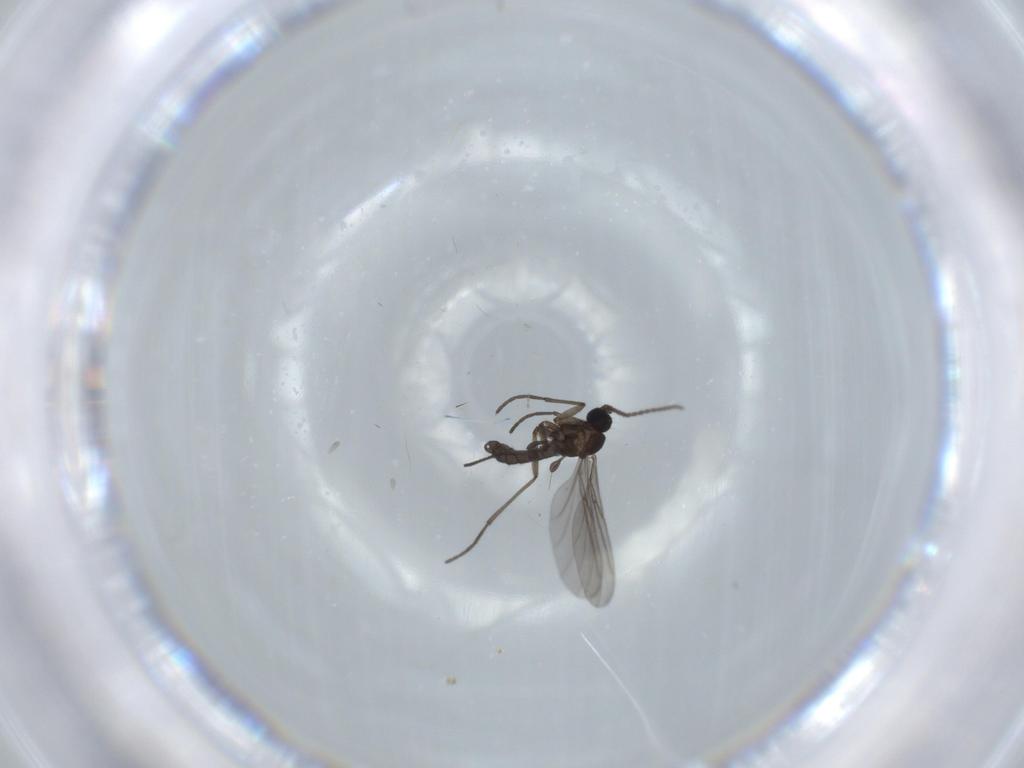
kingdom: Animalia
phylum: Arthropoda
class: Insecta
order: Diptera
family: Sciaridae
